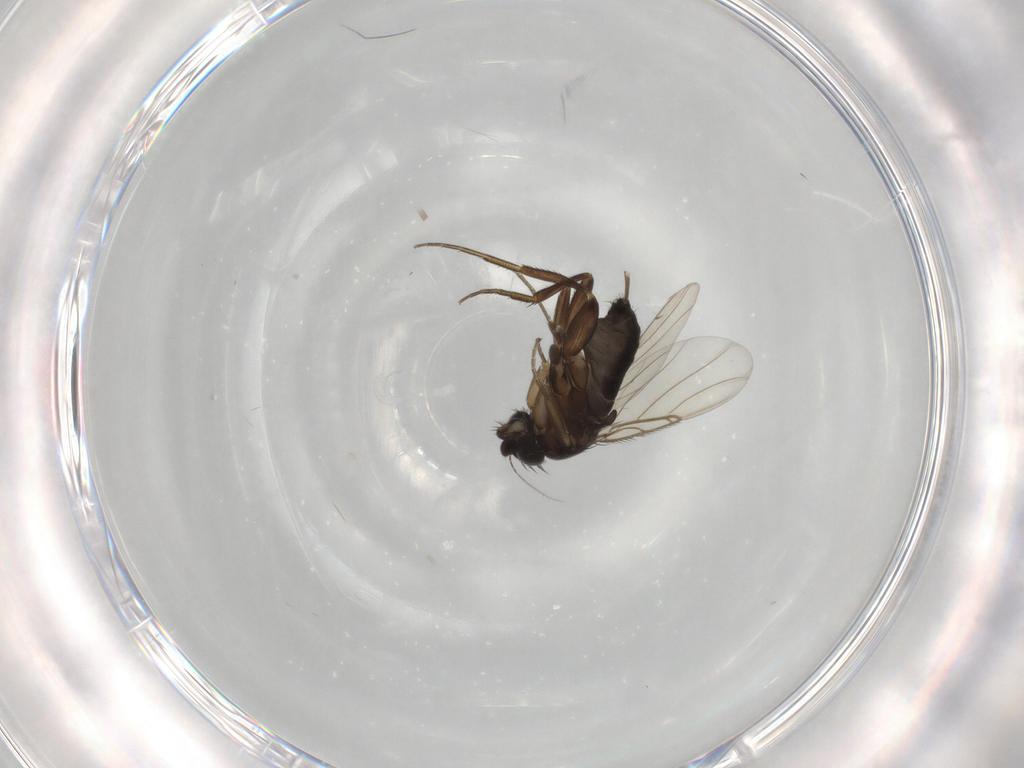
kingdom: Animalia
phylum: Arthropoda
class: Insecta
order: Diptera
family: Phoridae
